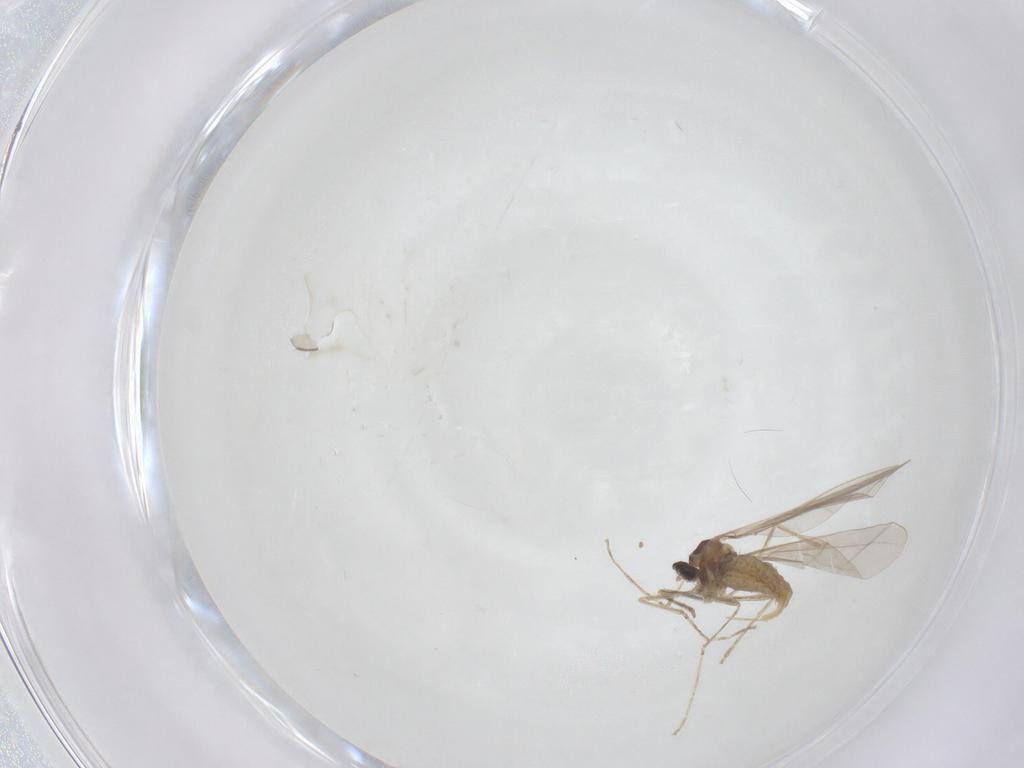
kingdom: Animalia
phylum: Arthropoda
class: Insecta
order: Diptera
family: Cecidomyiidae
